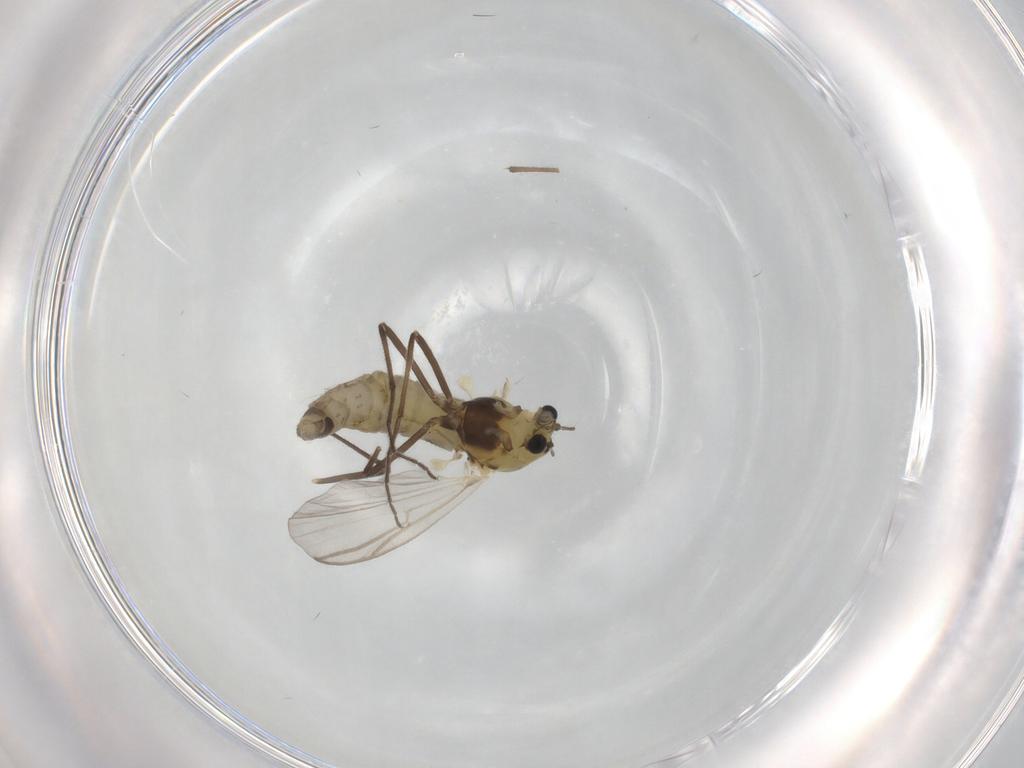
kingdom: Animalia
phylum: Arthropoda
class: Insecta
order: Diptera
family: Chironomidae
